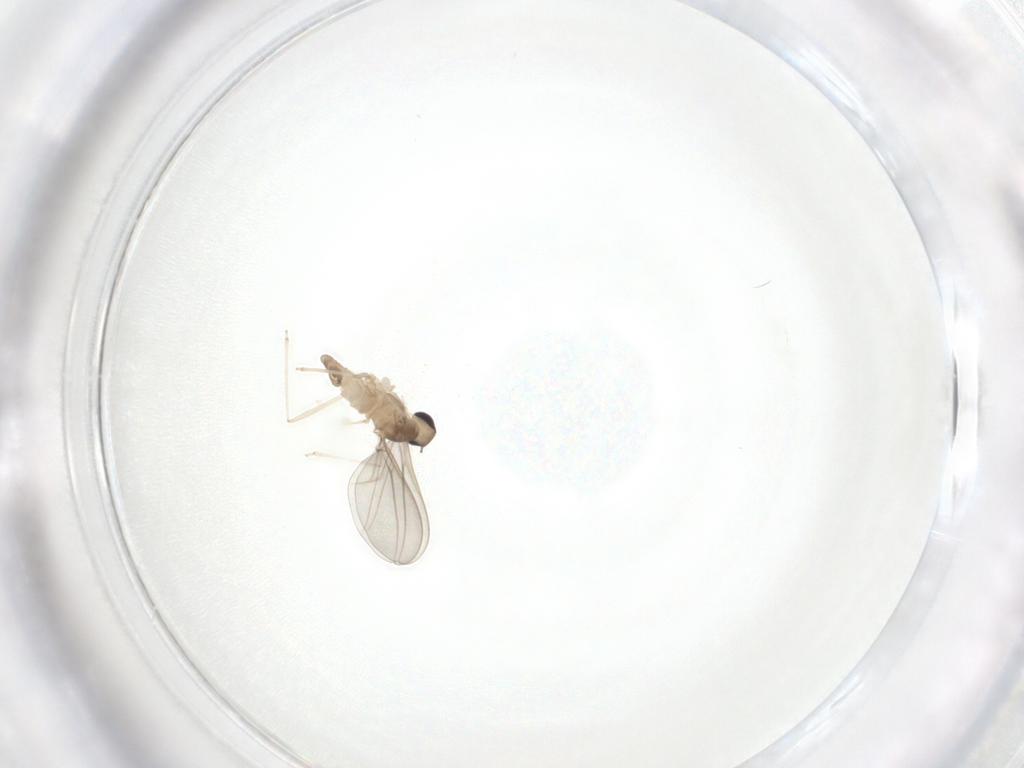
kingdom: Animalia
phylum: Arthropoda
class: Insecta
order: Diptera
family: Cecidomyiidae
